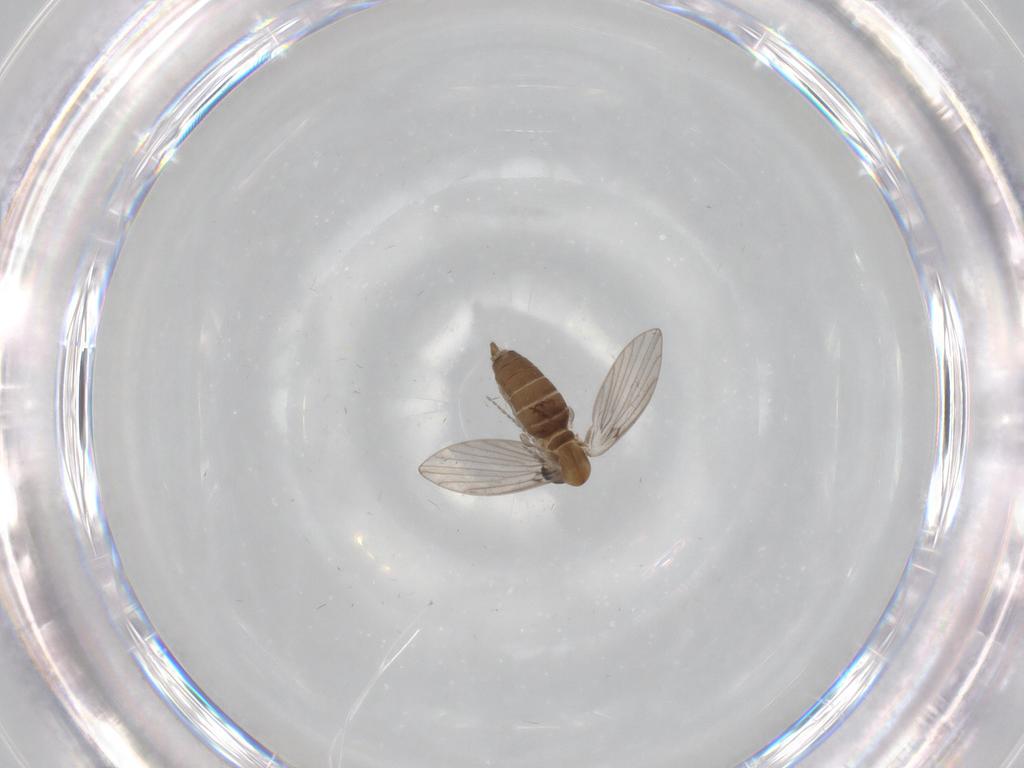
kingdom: Animalia
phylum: Arthropoda
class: Insecta
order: Diptera
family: Psychodidae
